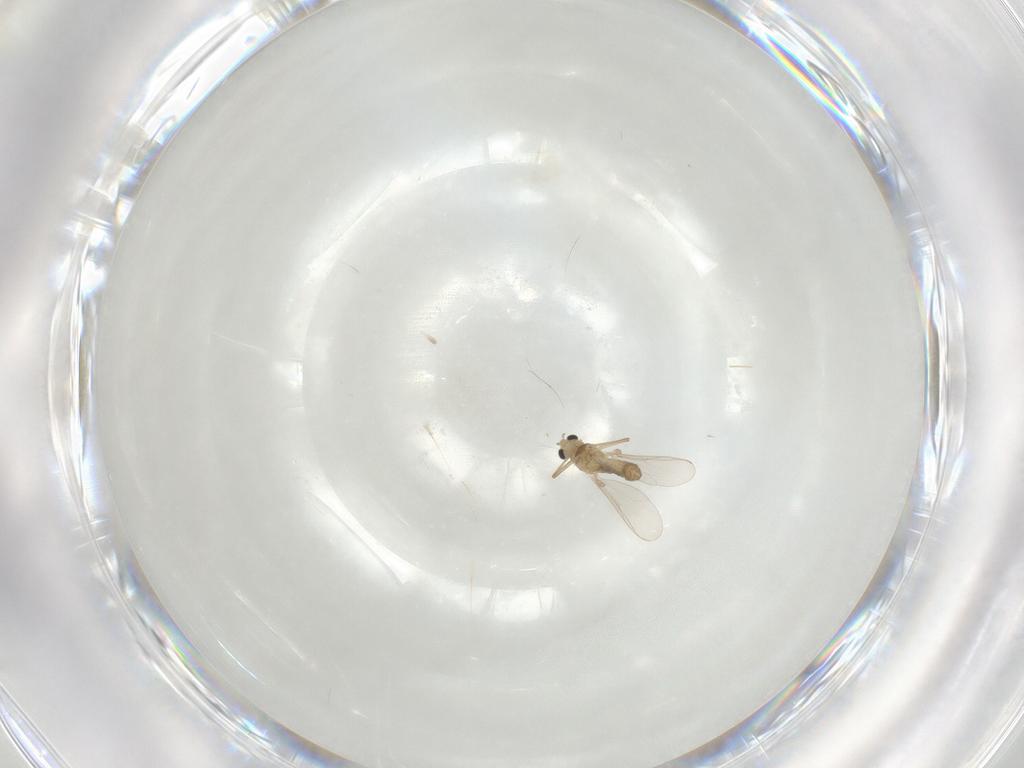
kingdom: Animalia
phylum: Arthropoda
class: Insecta
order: Diptera
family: Chironomidae
